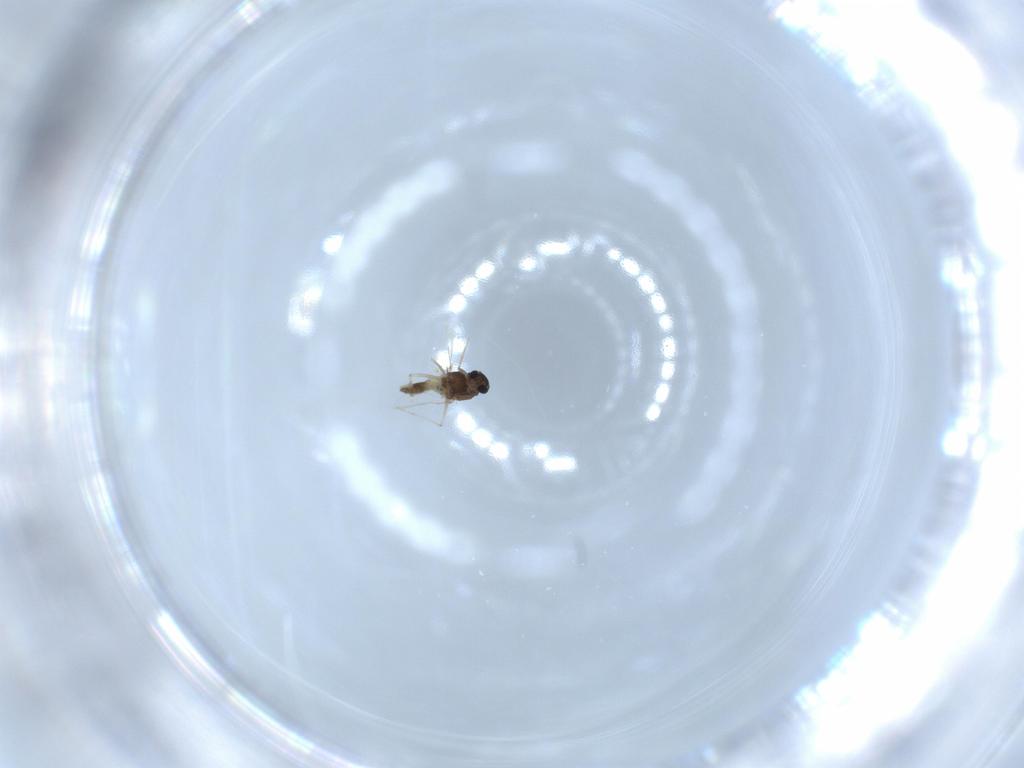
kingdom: Animalia
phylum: Arthropoda
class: Insecta
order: Diptera
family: Chironomidae
